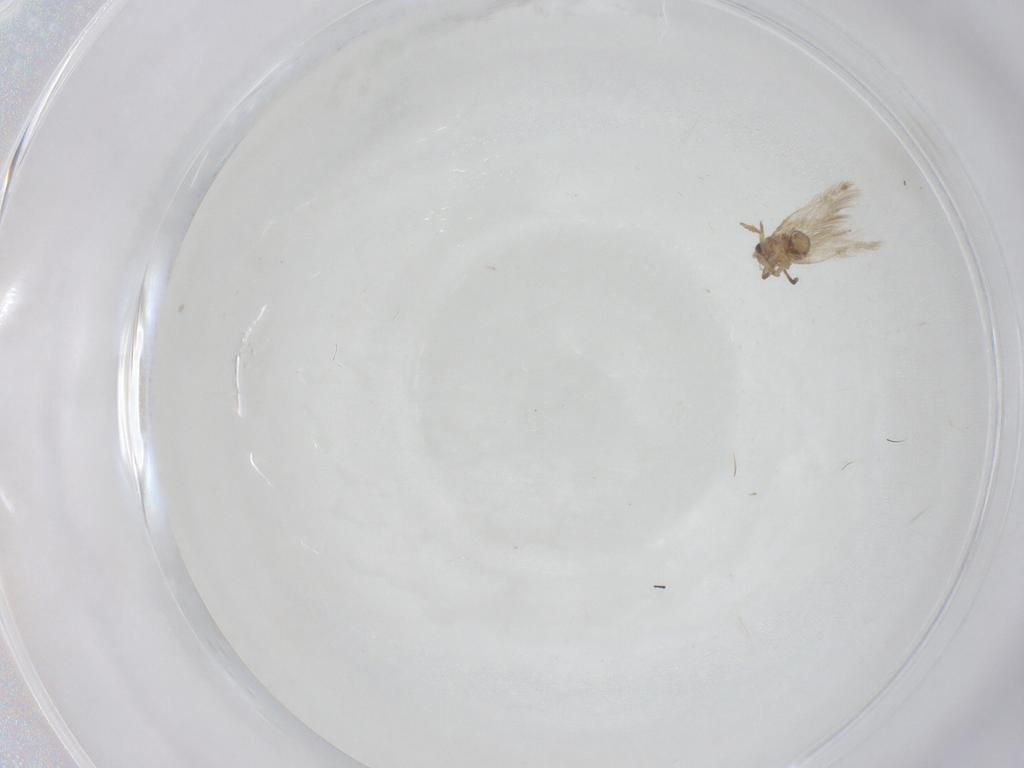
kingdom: Animalia
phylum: Arthropoda
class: Insecta
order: Lepidoptera
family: Nepticulidae
